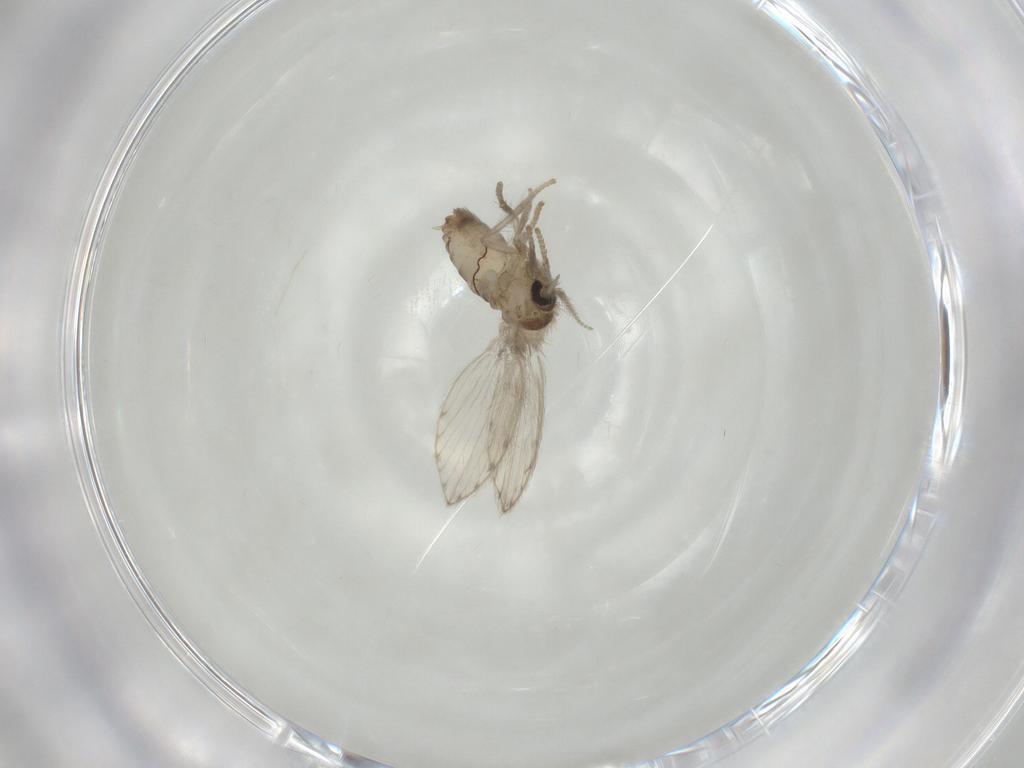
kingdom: Animalia
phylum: Arthropoda
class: Insecta
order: Diptera
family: Psychodidae
